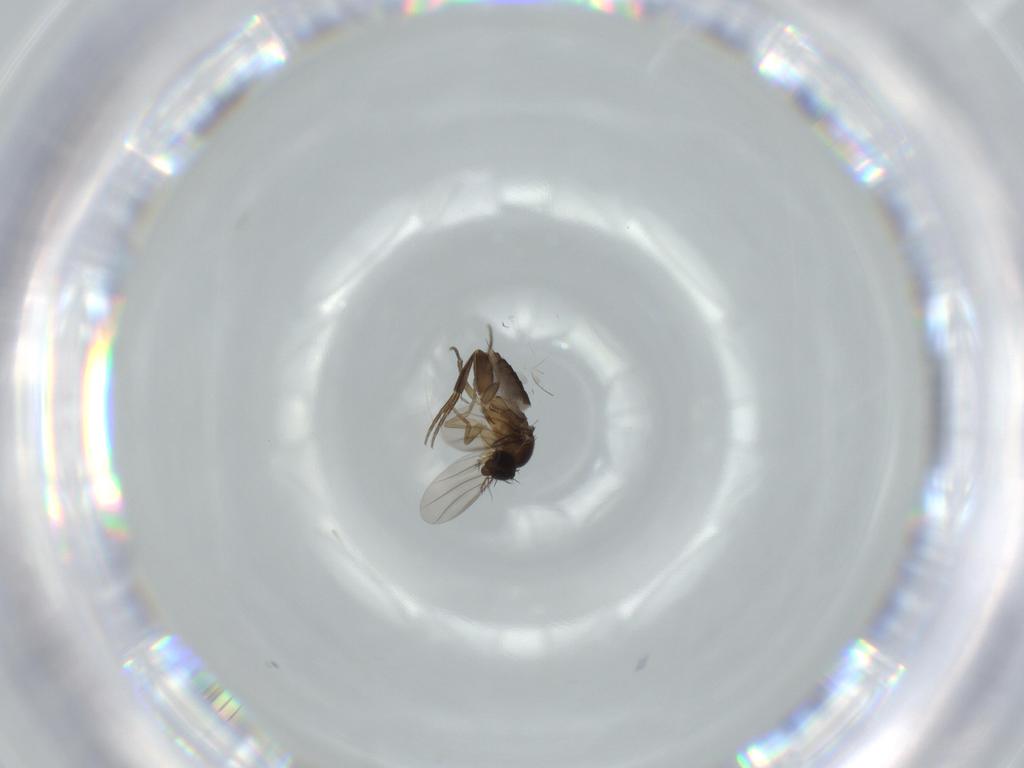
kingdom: Animalia
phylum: Arthropoda
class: Insecta
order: Diptera
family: Phoridae
